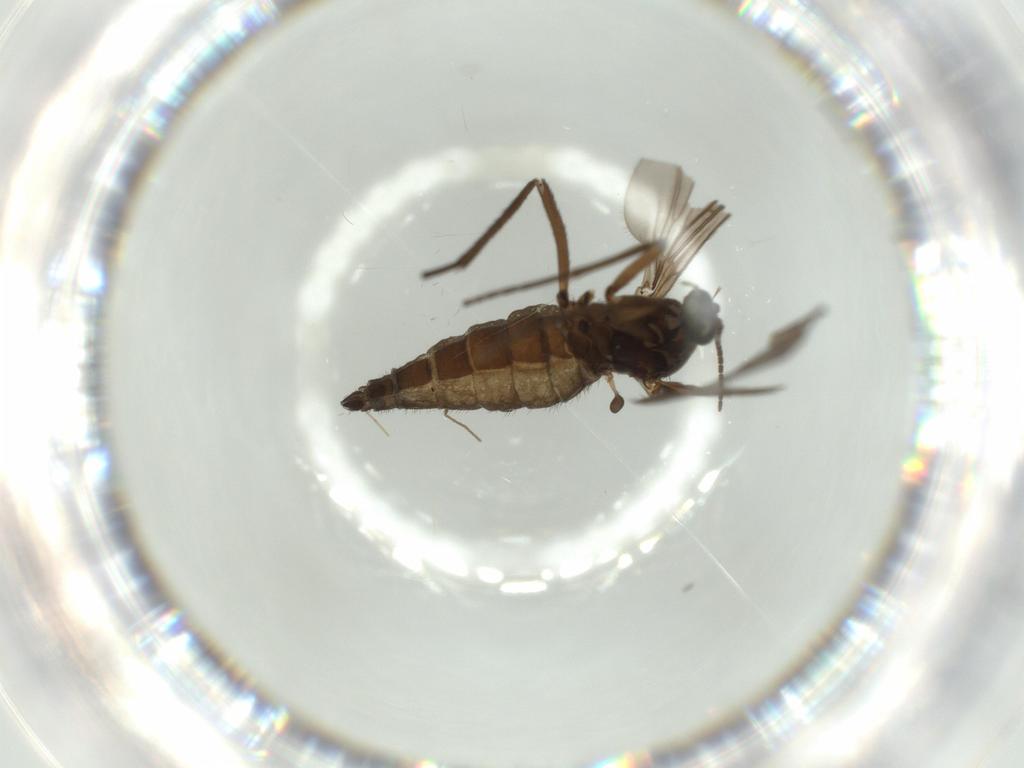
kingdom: Animalia
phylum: Arthropoda
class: Insecta
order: Diptera
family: Sciaridae
